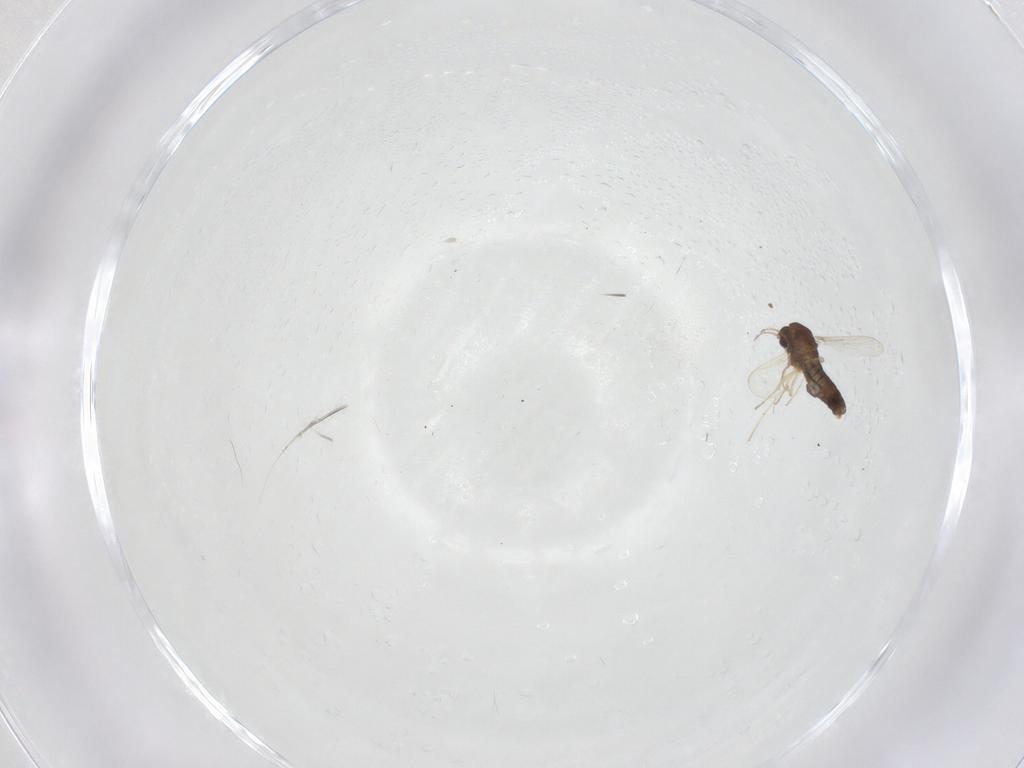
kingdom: Animalia
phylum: Arthropoda
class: Insecta
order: Diptera
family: Chironomidae
